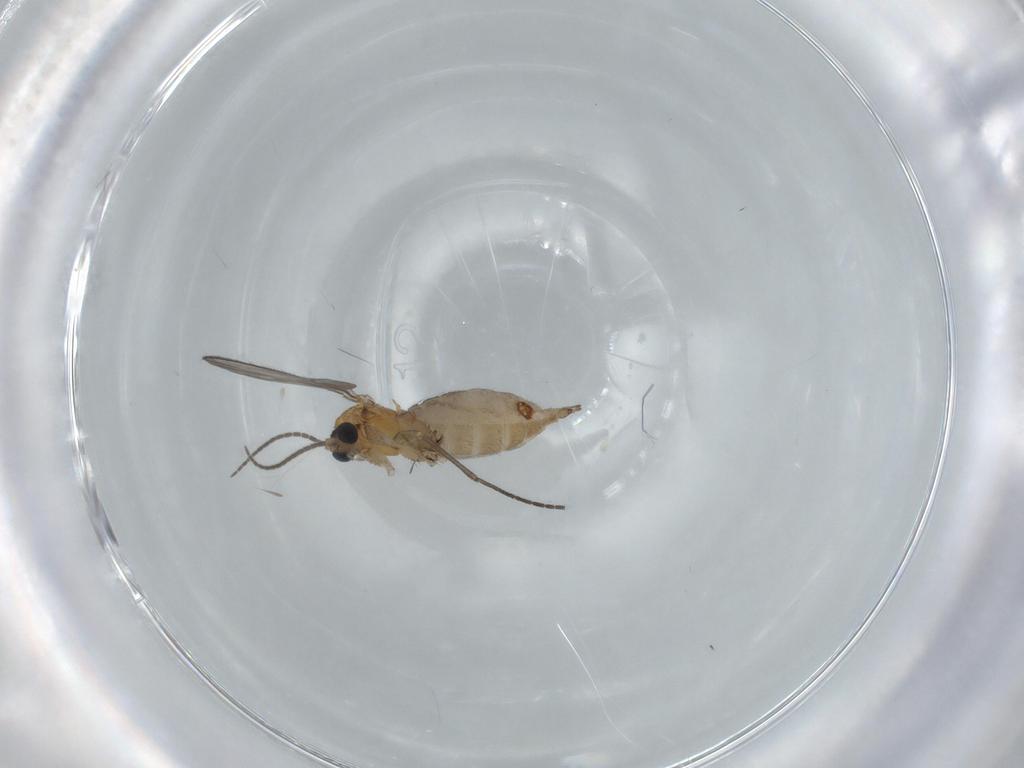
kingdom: Animalia
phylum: Arthropoda
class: Insecta
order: Diptera
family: Sciaridae
